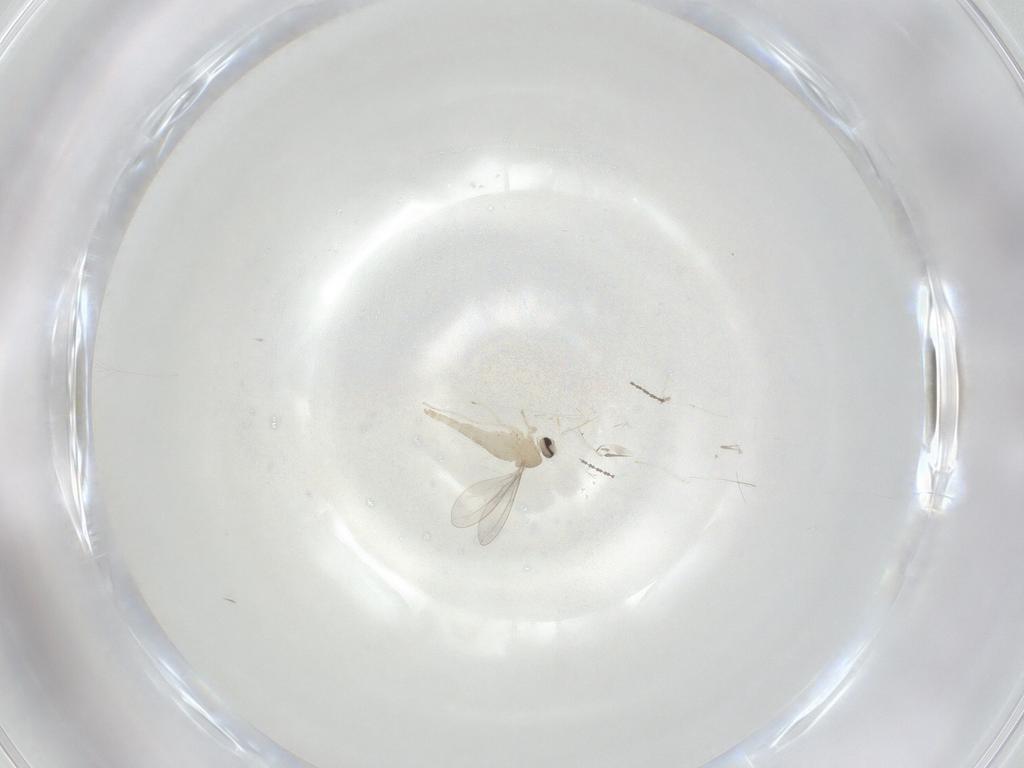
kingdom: Animalia
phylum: Arthropoda
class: Insecta
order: Diptera
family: Cecidomyiidae
